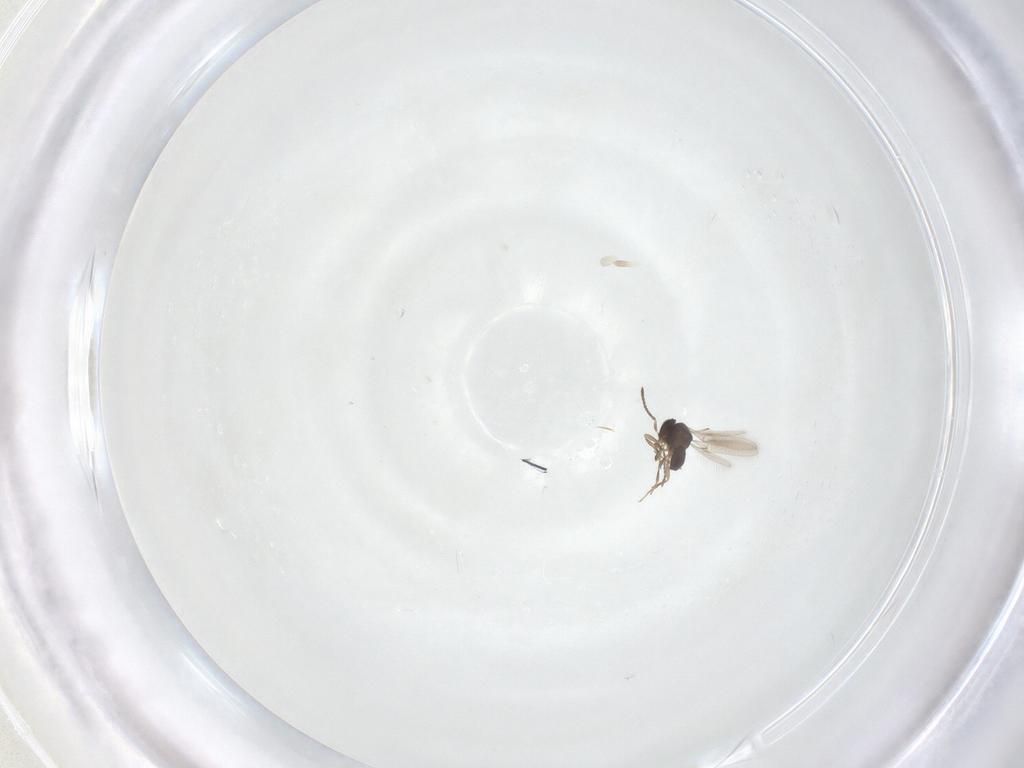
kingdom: Animalia
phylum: Arthropoda
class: Insecta
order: Hymenoptera
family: Scelionidae
